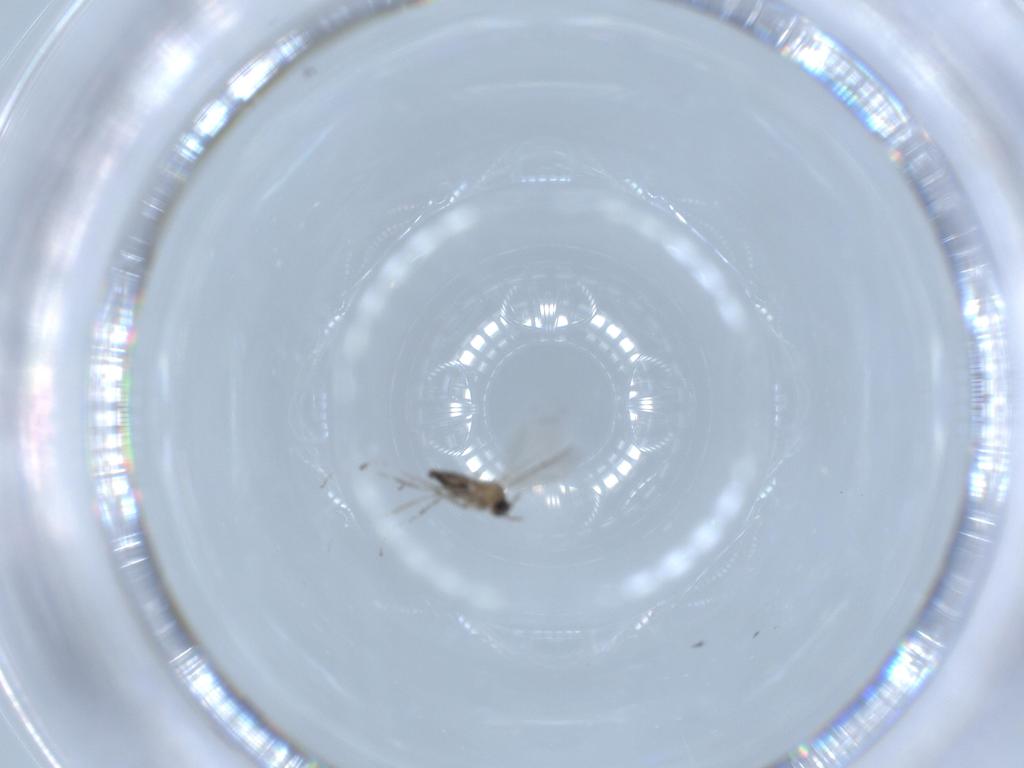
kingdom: Animalia
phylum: Arthropoda
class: Insecta
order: Diptera
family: Cecidomyiidae
